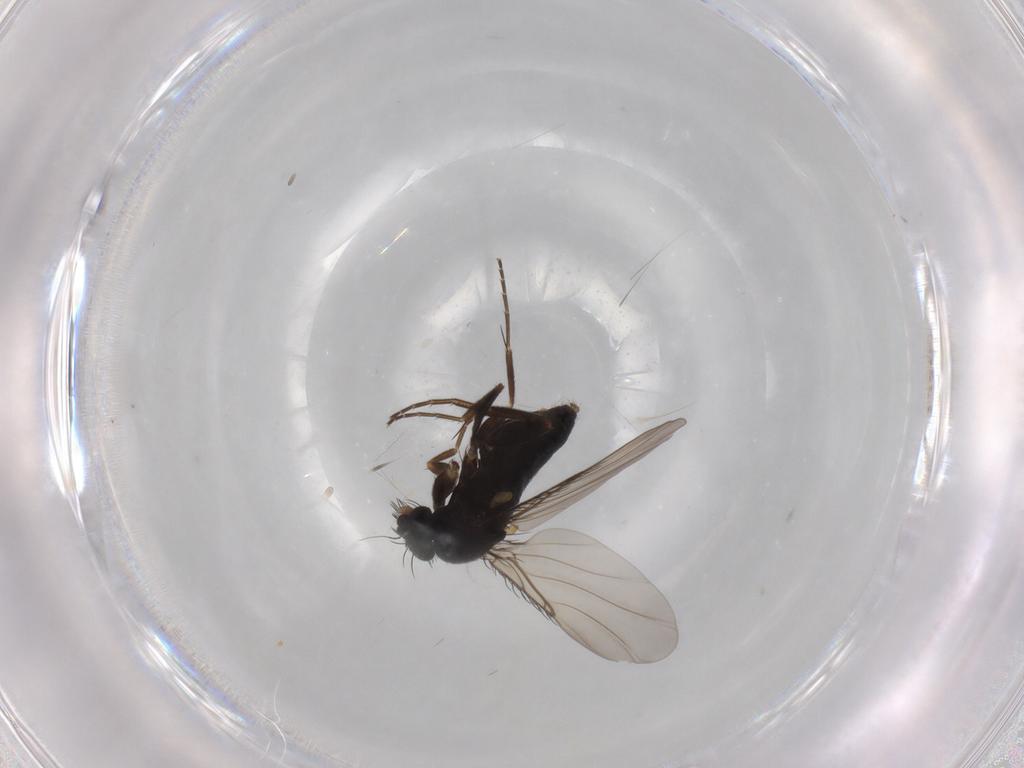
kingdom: Animalia
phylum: Arthropoda
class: Insecta
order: Diptera
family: Phoridae
